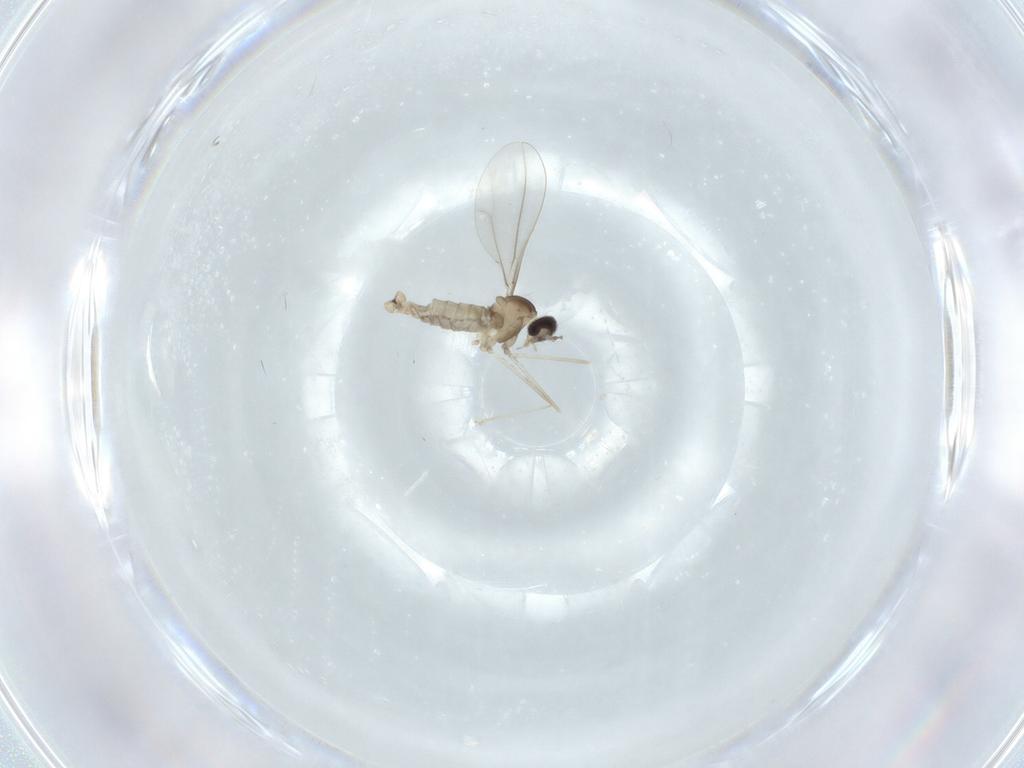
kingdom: Animalia
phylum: Arthropoda
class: Insecta
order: Diptera
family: Cecidomyiidae
